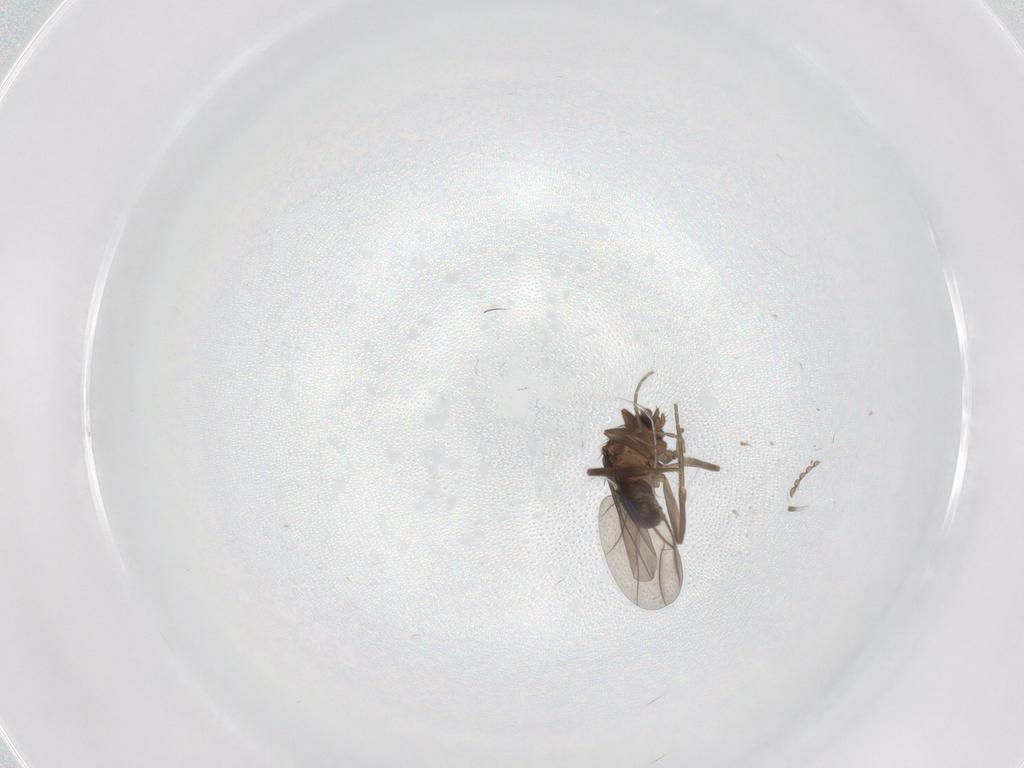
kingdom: Animalia
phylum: Arthropoda
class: Insecta
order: Diptera
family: Phoridae
